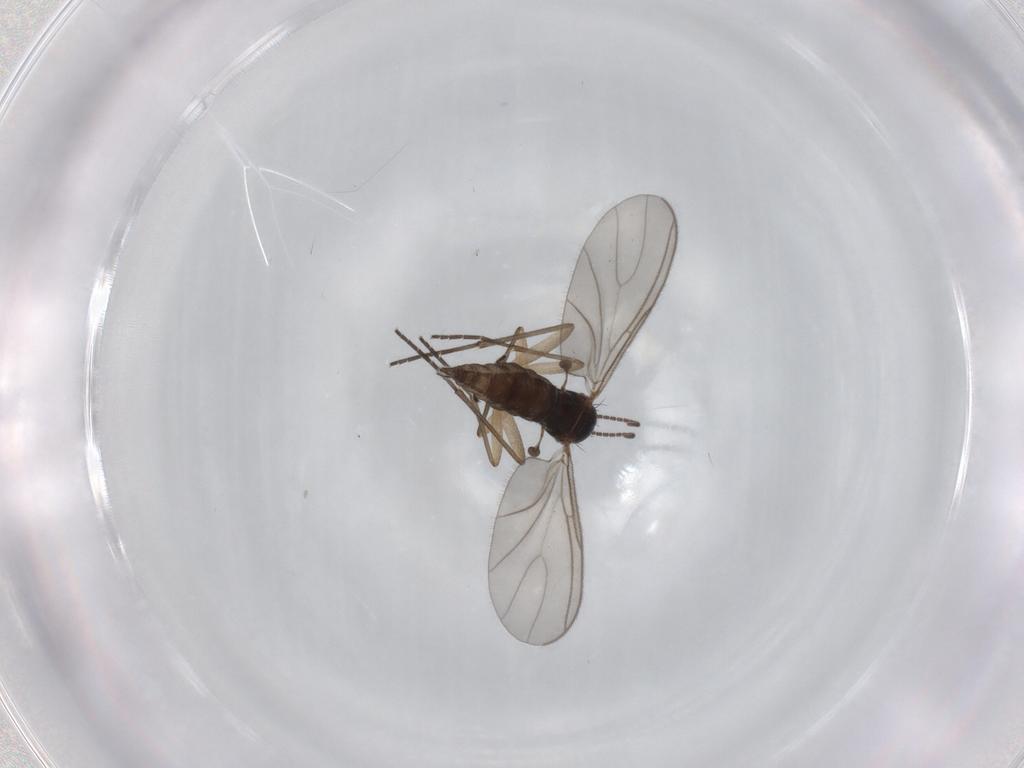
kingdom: Animalia
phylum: Arthropoda
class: Insecta
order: Diptera
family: Sciaridae
